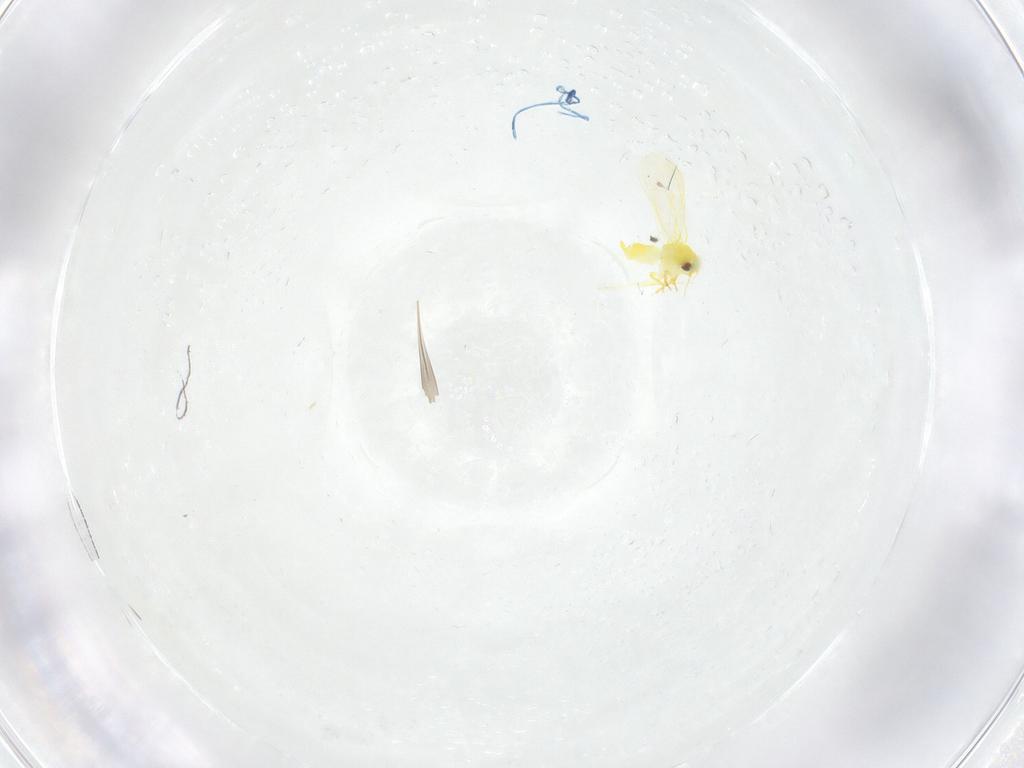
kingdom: Animalia
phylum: Arthropoda
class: Insecta
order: Diptera
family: Sciaridae
